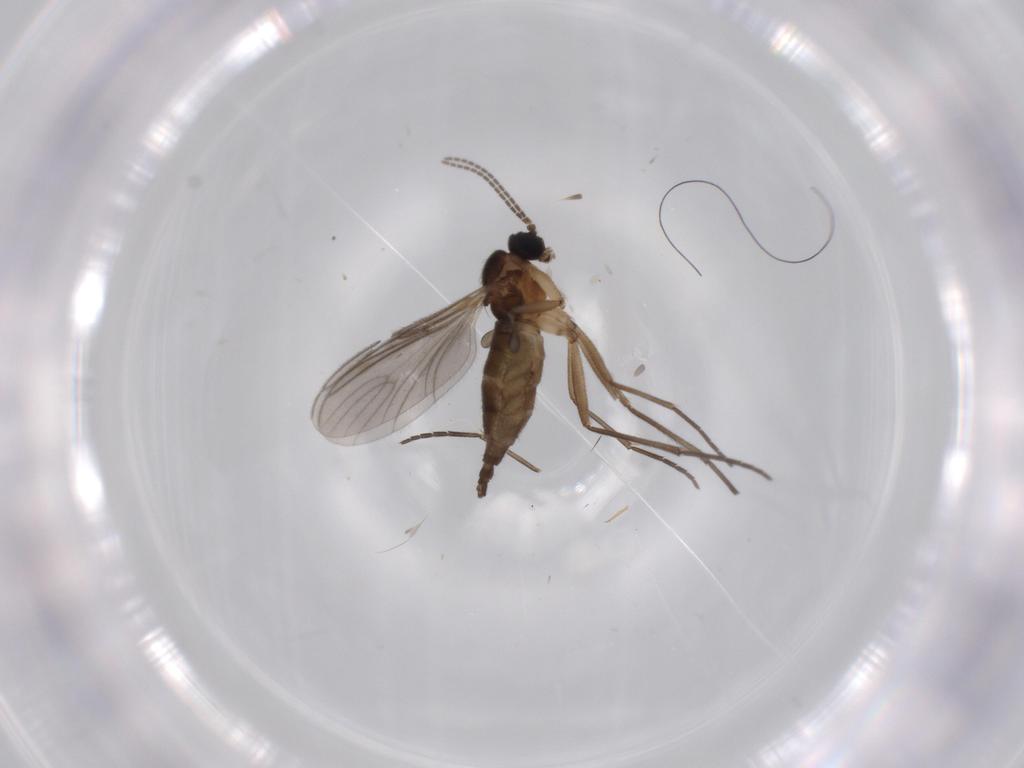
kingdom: Animalia
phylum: Arthropoda
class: Insecta
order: Diptera
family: Sphaeroceridae
